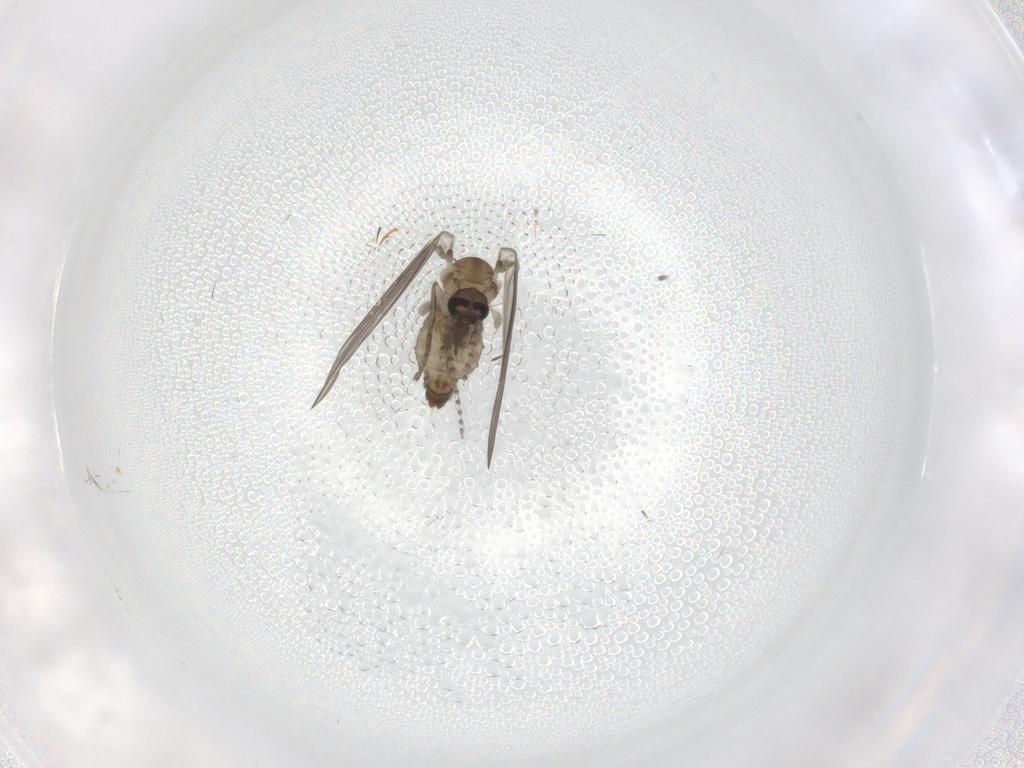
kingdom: Animalia
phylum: Arthropoda
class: Insecta
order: Diptera
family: Psychodidae
